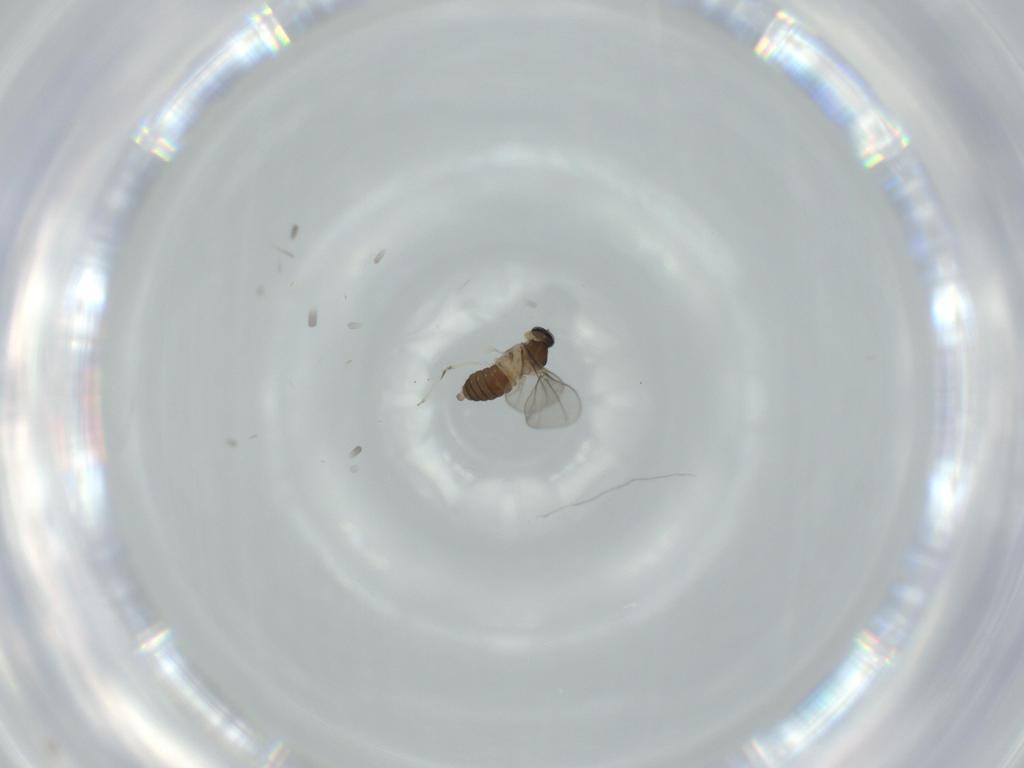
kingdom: Animalia
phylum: Arthropoda
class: Insecta
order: Diptera
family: Cecidomyiidae
